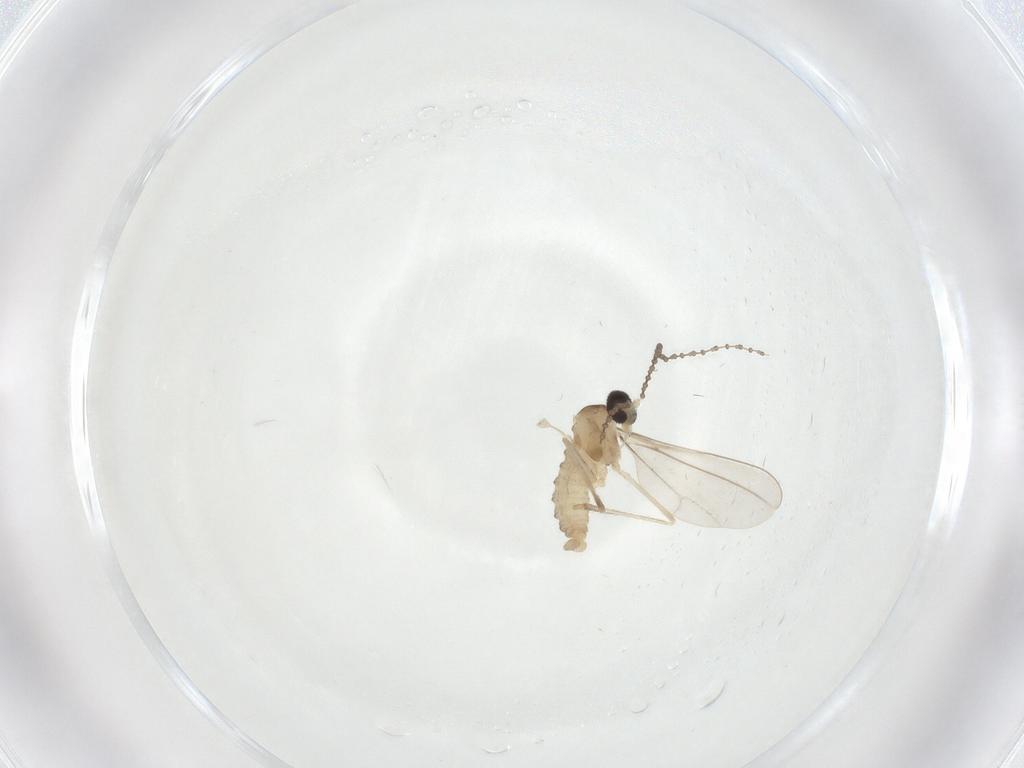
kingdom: Animalia
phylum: Arthropoda
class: Insecta
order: Diptera
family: Cecidomyiidae
